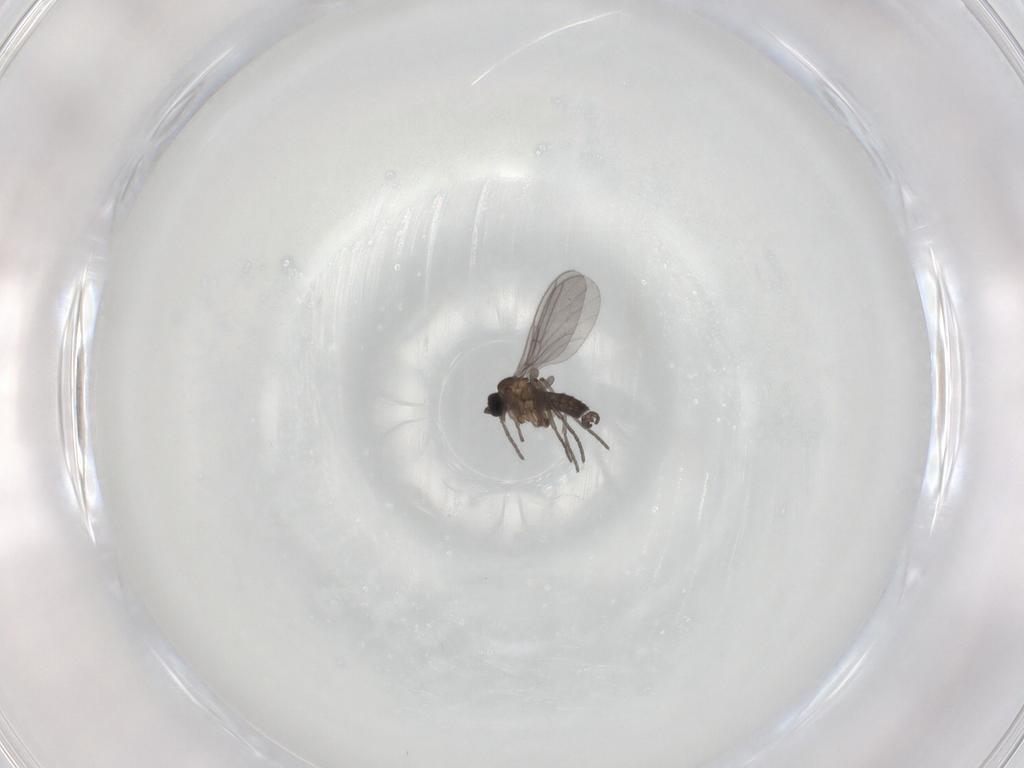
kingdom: Animalia
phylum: Arthropoda
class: Insecta
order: Diptera
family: Chironomidae
